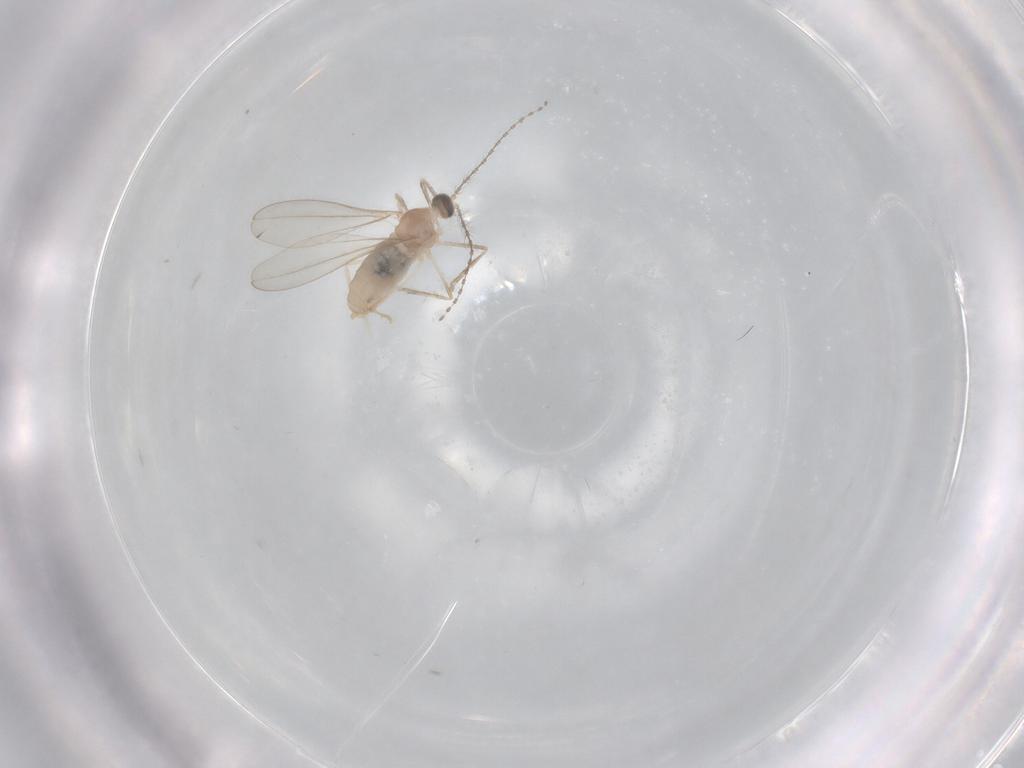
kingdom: Animalia
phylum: Arthropoda
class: Insecta
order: Diptera
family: Cecidomyiidae
